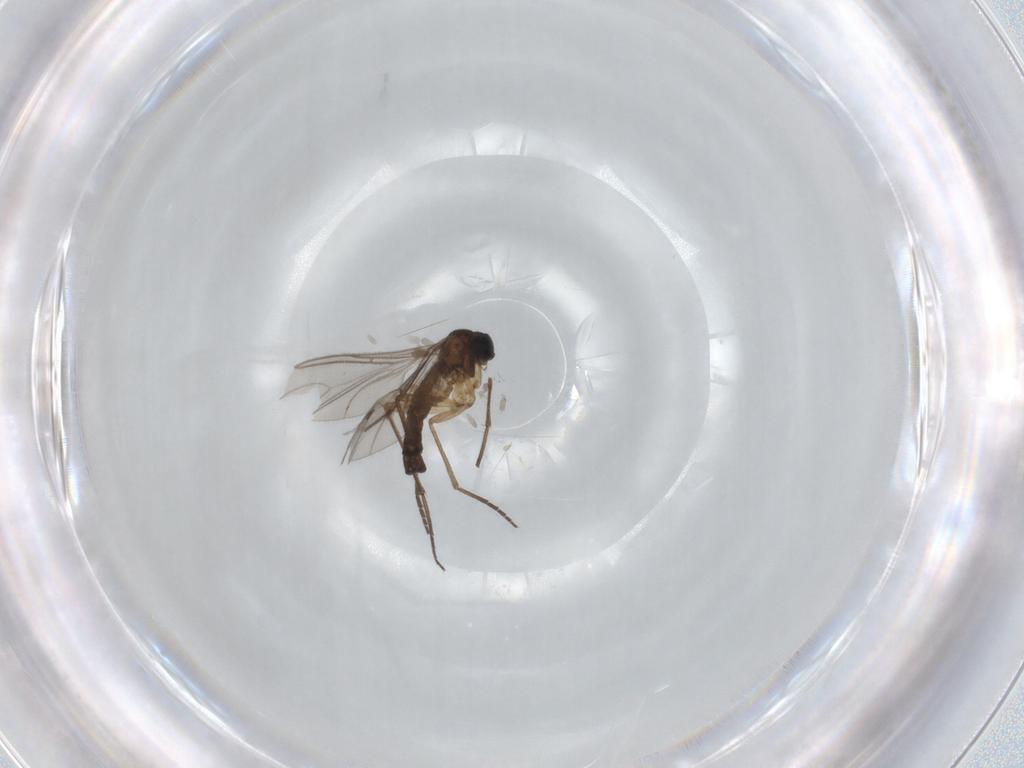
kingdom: Animalia
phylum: Arthropoda
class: Insecta
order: Diptera
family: Sciaridae
